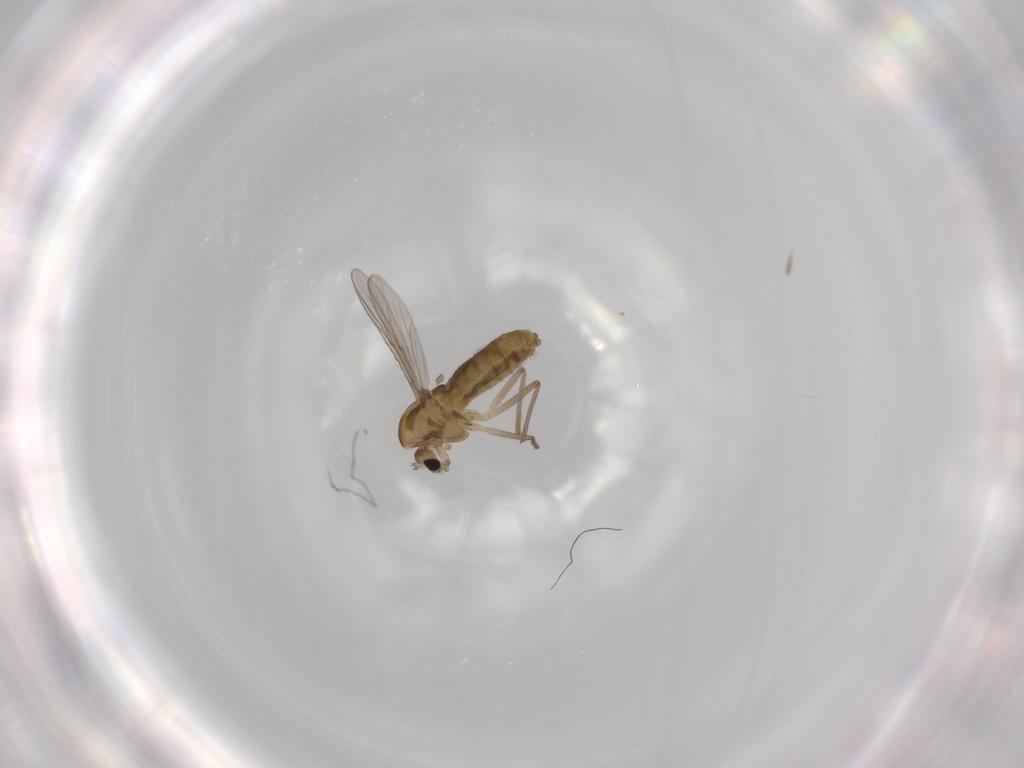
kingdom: Animalia
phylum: Arthropoda
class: Insecta
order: Diptera
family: Chironomidae
